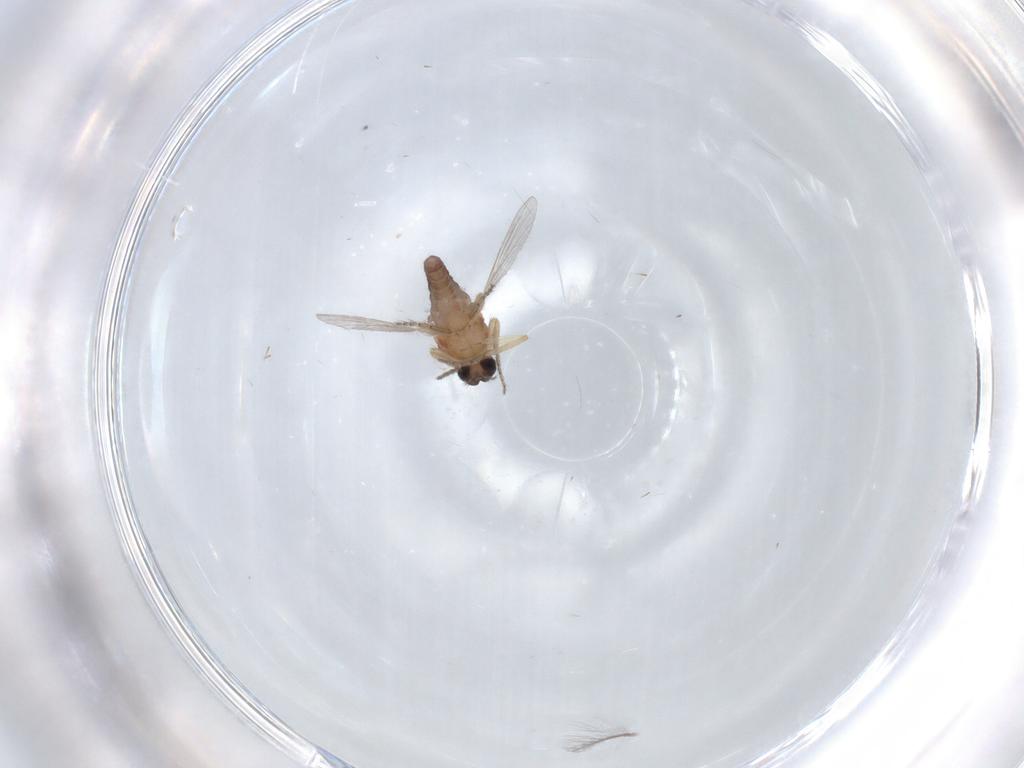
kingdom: Animalia
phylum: Arthropoda
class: Insecta
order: Diptera
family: Ceratopogonidae
